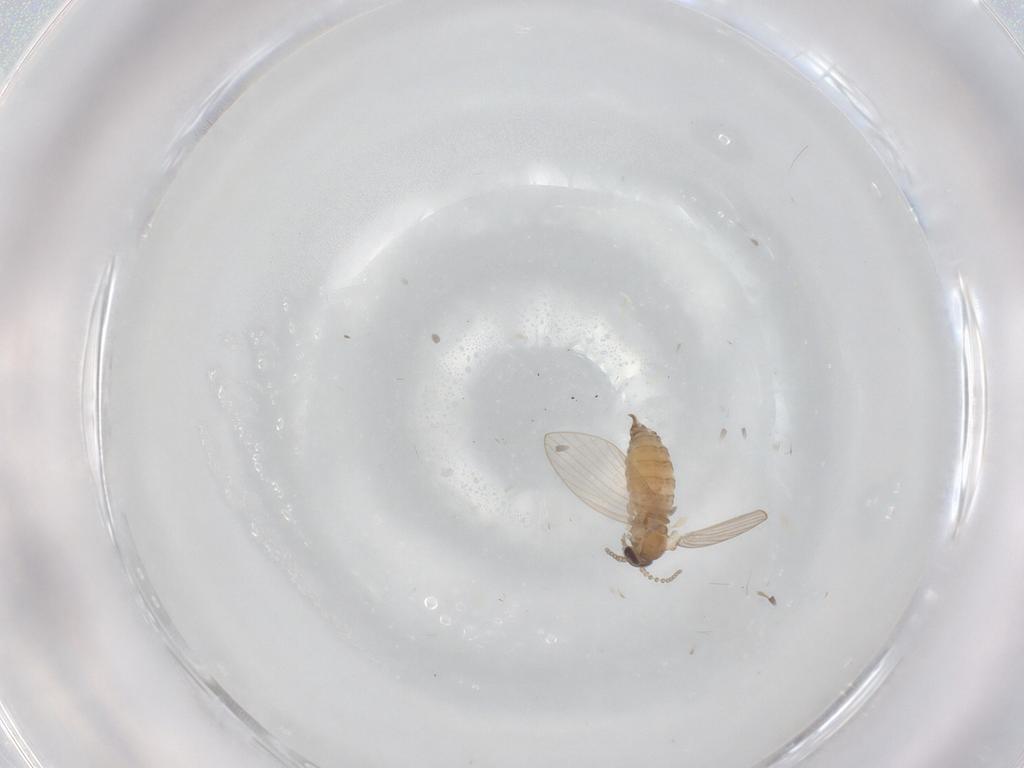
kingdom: Animalia
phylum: Arthropoda
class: Insecta
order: Diptera
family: Psychodidae
